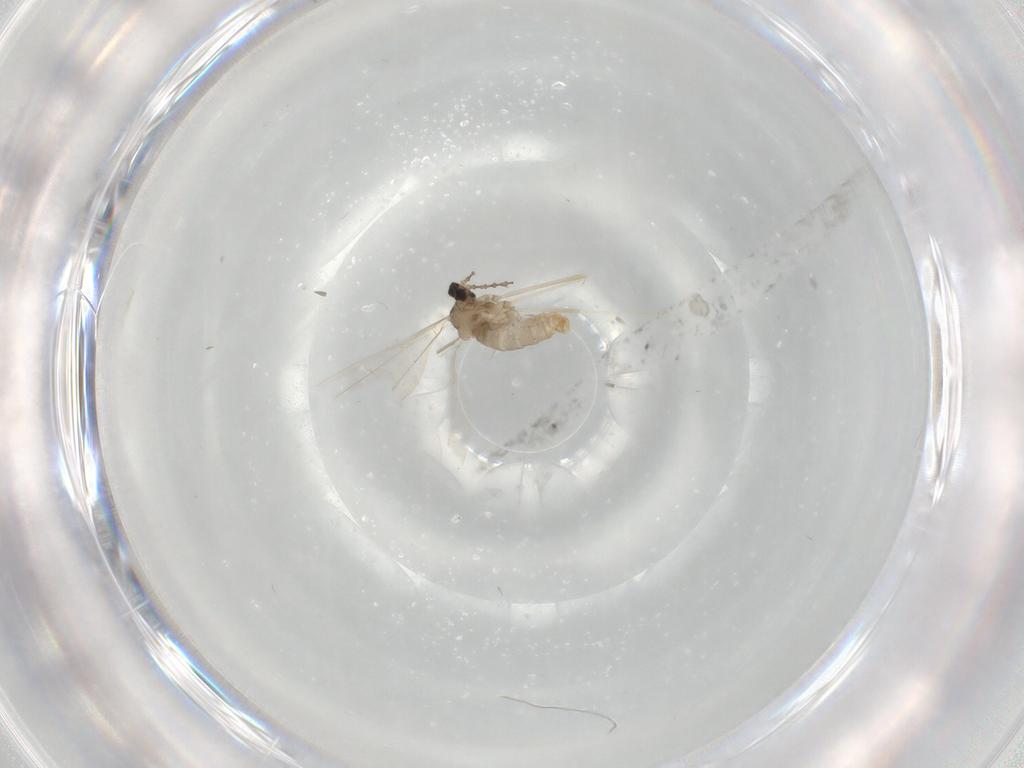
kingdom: Animalia
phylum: Arthropoda
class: Insecta
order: Diptera
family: Cecidomyiidae
